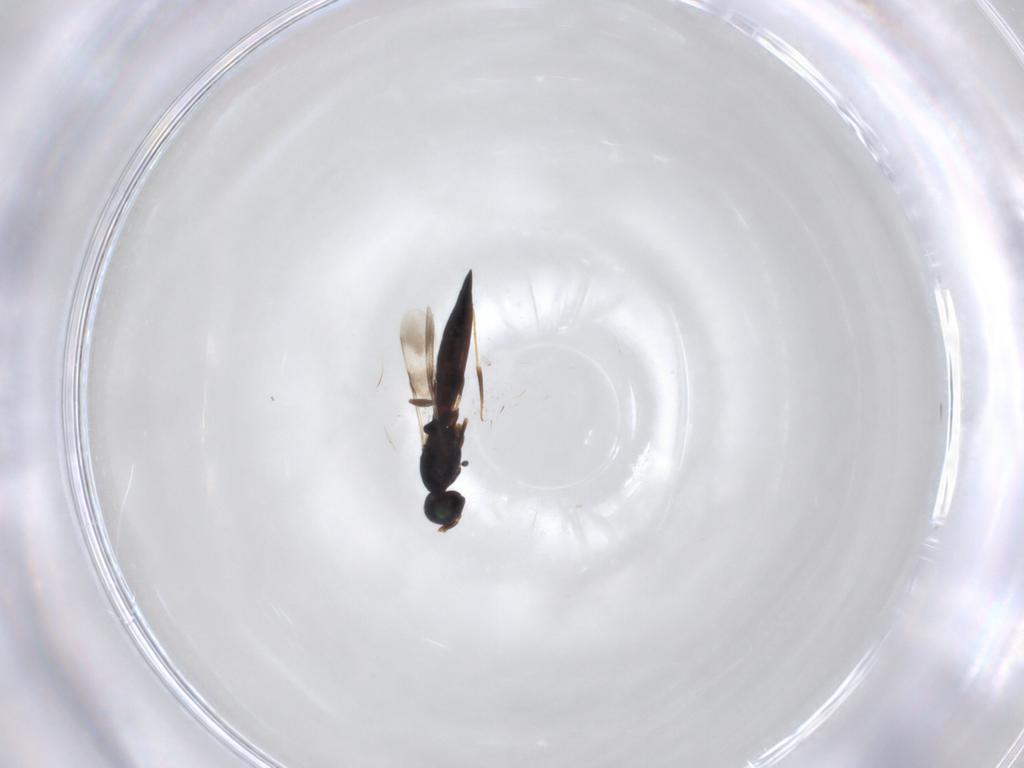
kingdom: Animalia
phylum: Arthropoda
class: Insecta
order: Hymenoptera
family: Scelionidae
